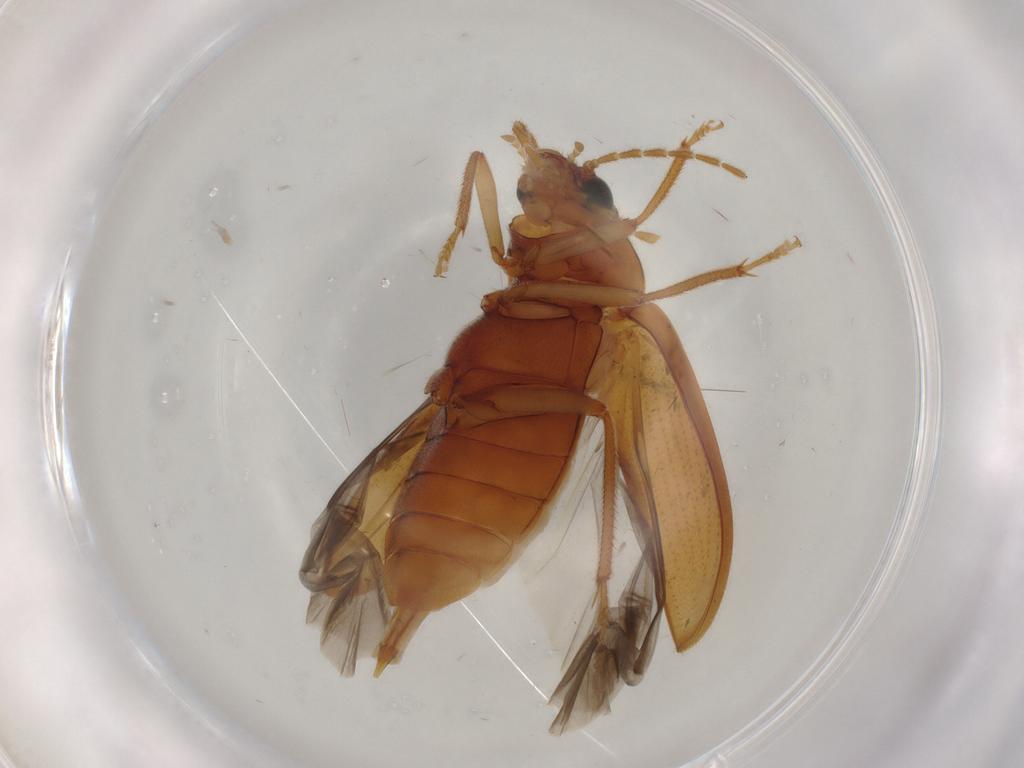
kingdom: Animalia
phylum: Arthropoda
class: Insecta
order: Coleoptera
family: Ptilodactylidae
